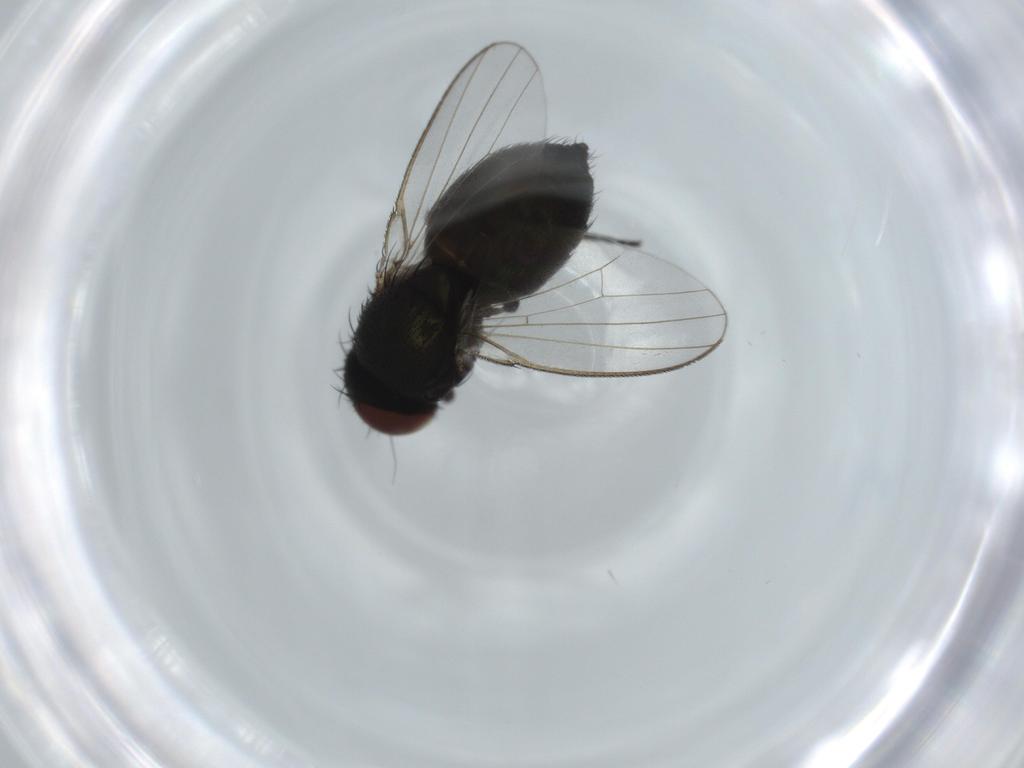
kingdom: Animalia
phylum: Arthropoda
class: Insecta
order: Diptera
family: Milichiidae
